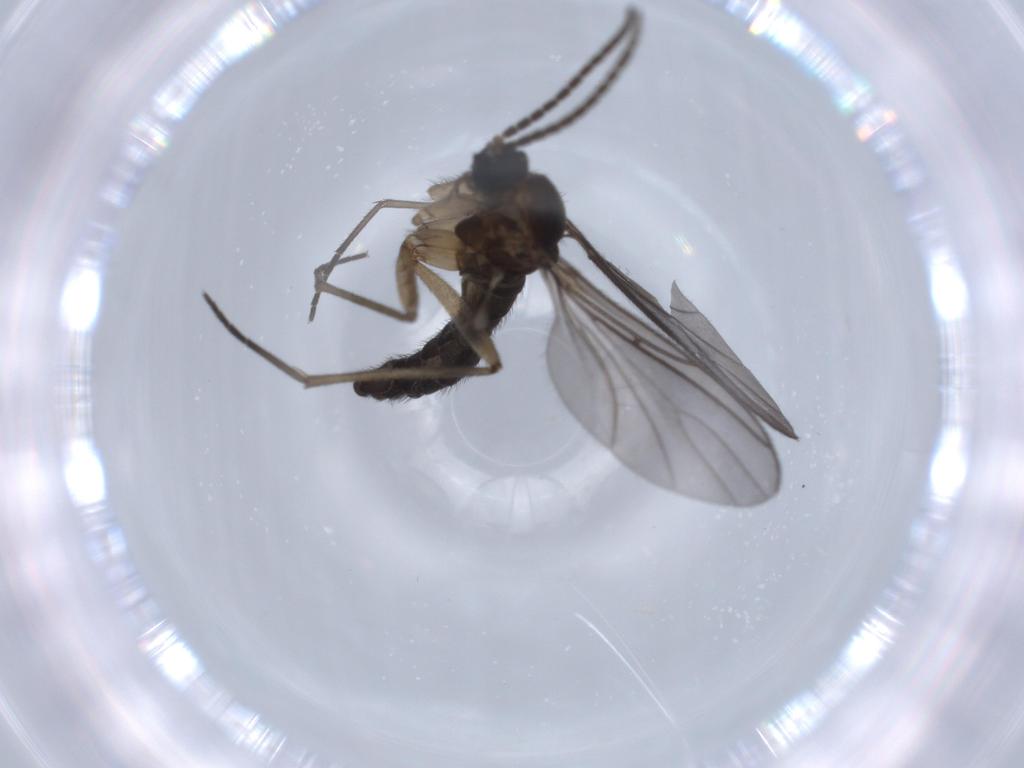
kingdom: Animalia
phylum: Arthropoda
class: Insecta
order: Diptera
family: Sciaridae
